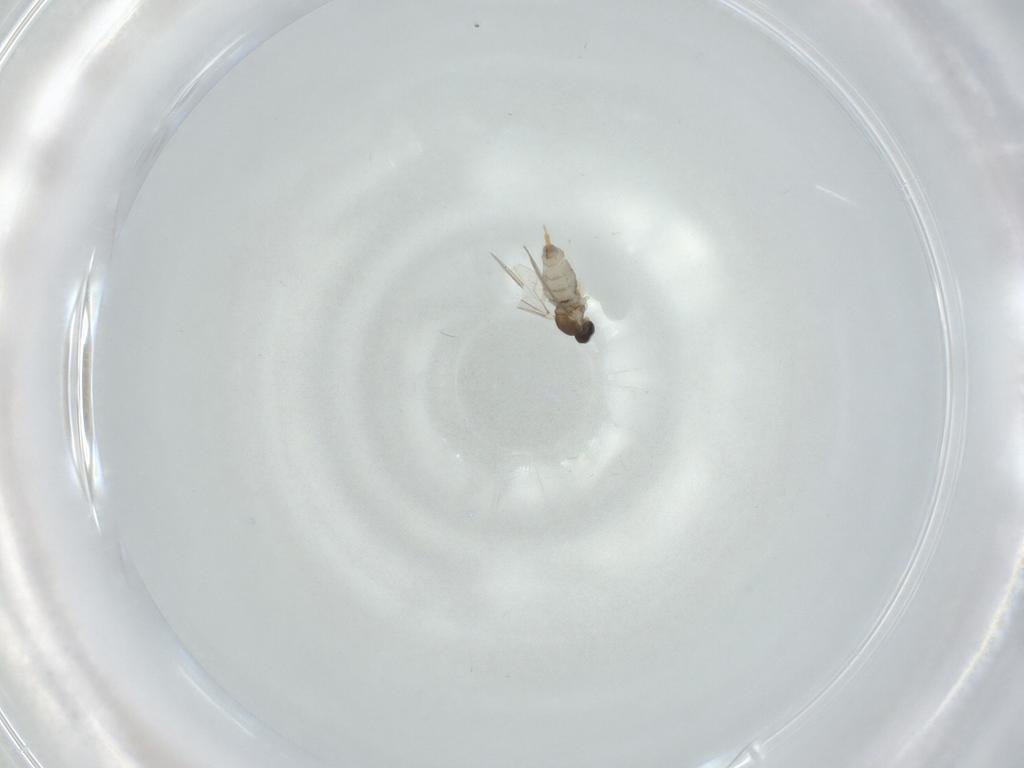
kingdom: Animalia
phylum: Arthropoda
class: Insecta
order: Diptera
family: Cecidomyiidae
